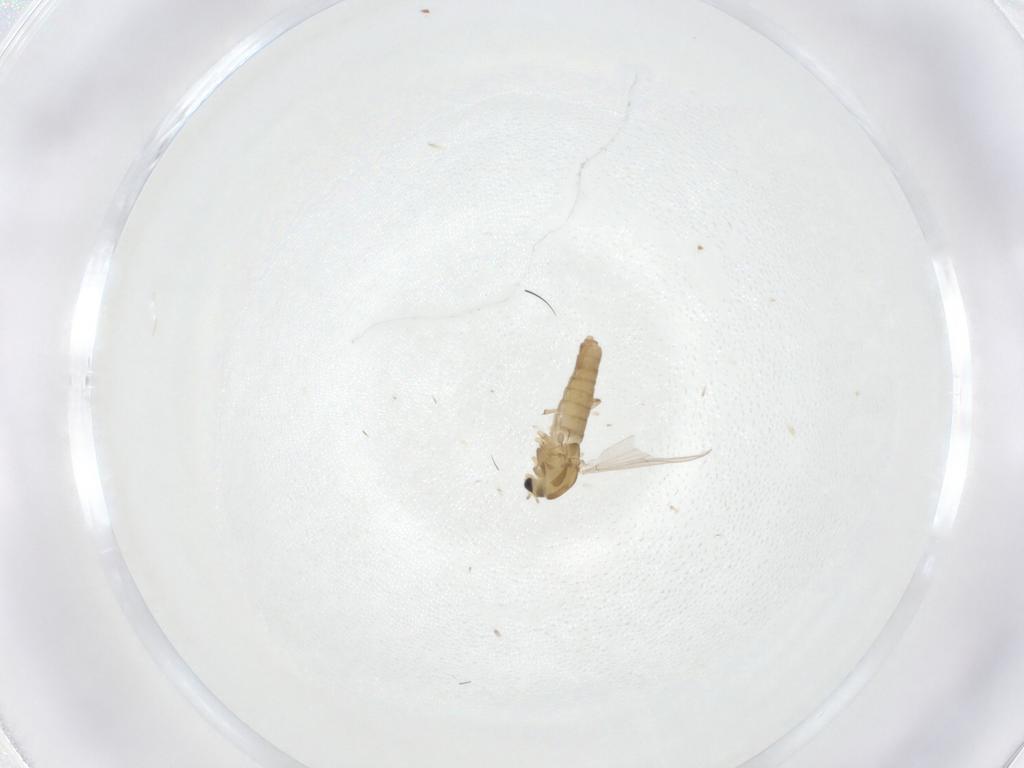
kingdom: Animalia
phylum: Arthropoda
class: Insecta
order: Diptera
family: Chironomidae
